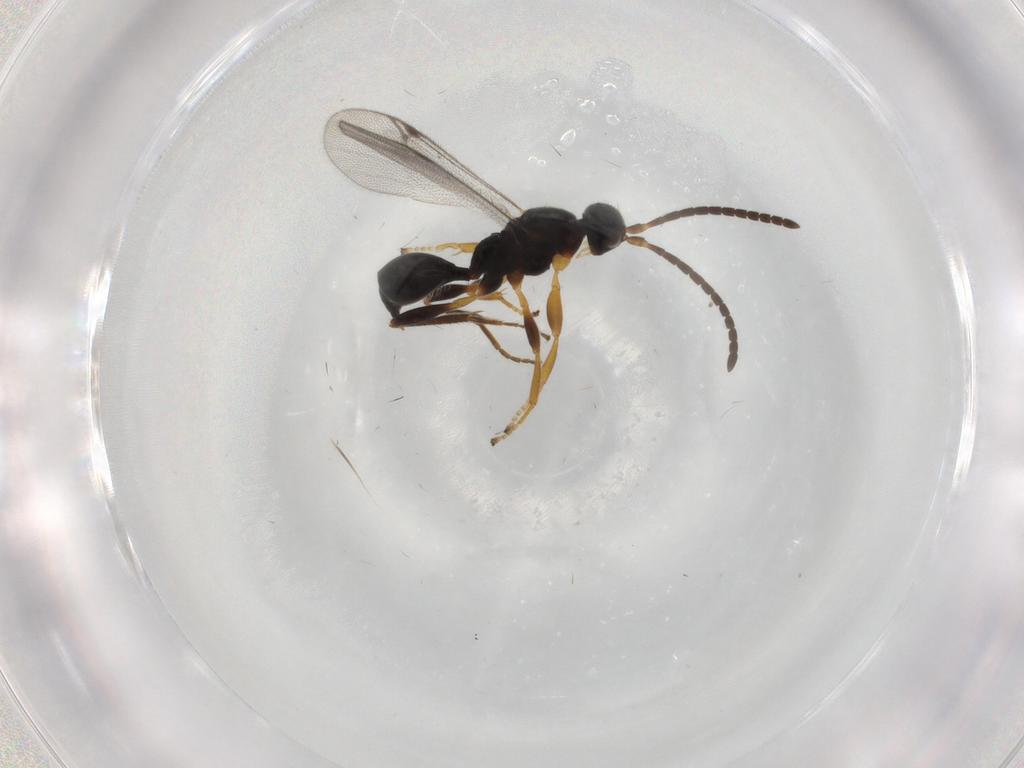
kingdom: Animalia
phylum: Arthropoda
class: Insecta
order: Hymenoptera
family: Proctotrupidae
